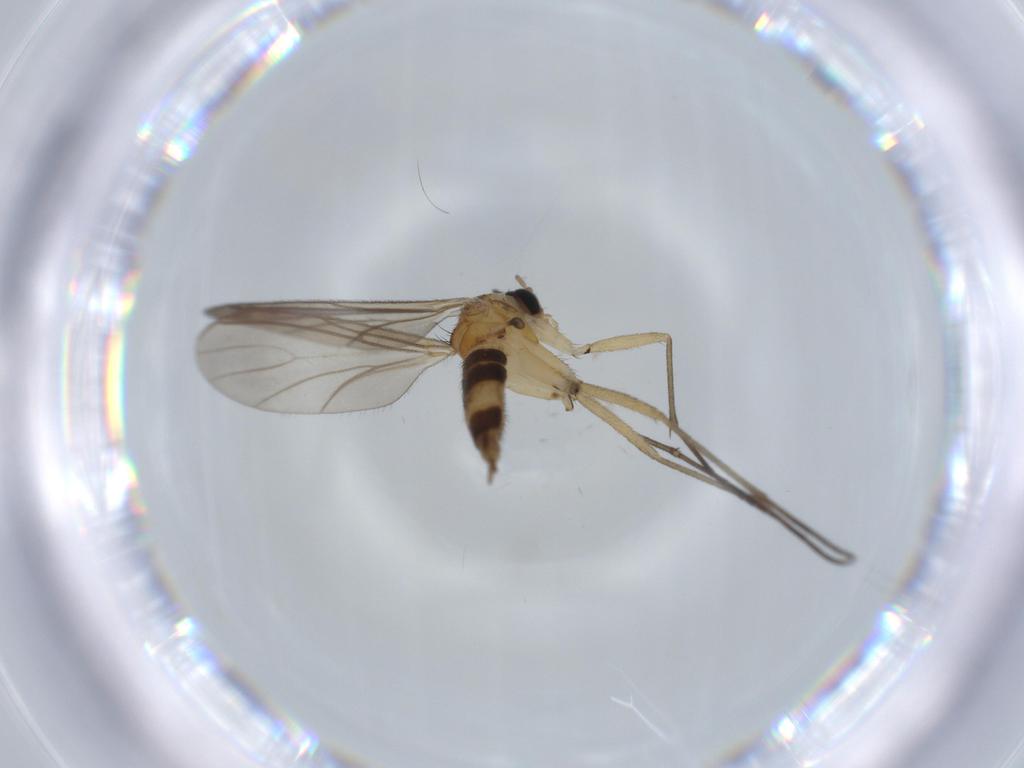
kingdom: Animalia
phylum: Arthropoda
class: Insecta
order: Diptera
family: Sciaridae
